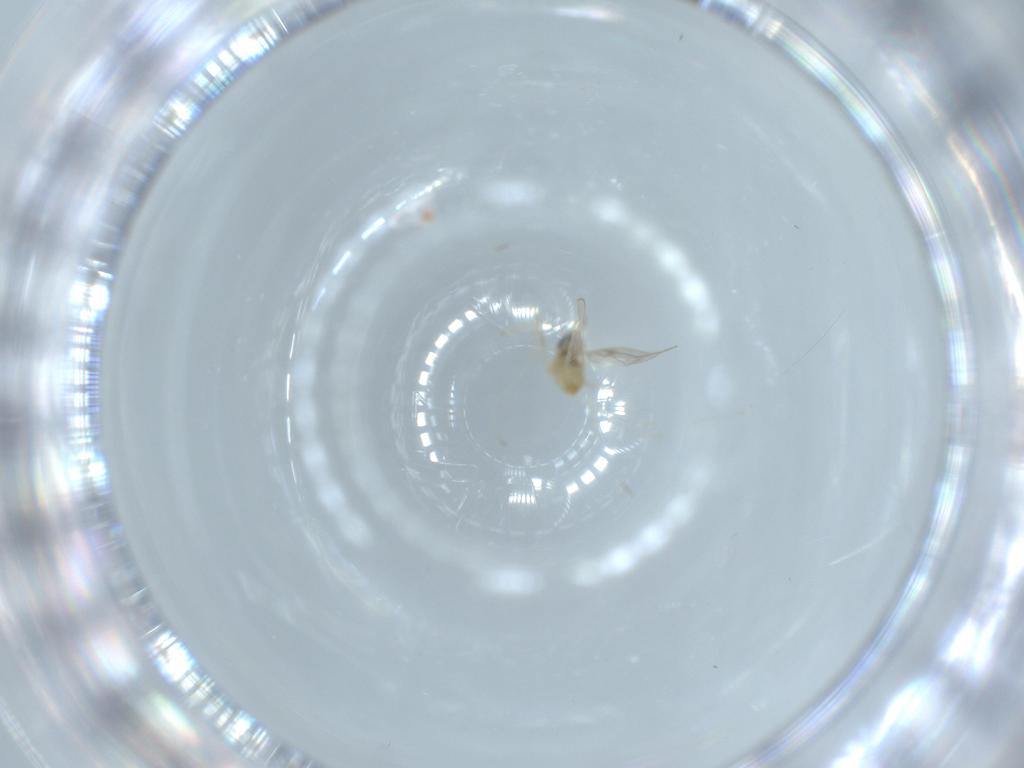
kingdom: Animalia
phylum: Arthropoda
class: Insecta
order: Diptera
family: Cecidomyiidae
